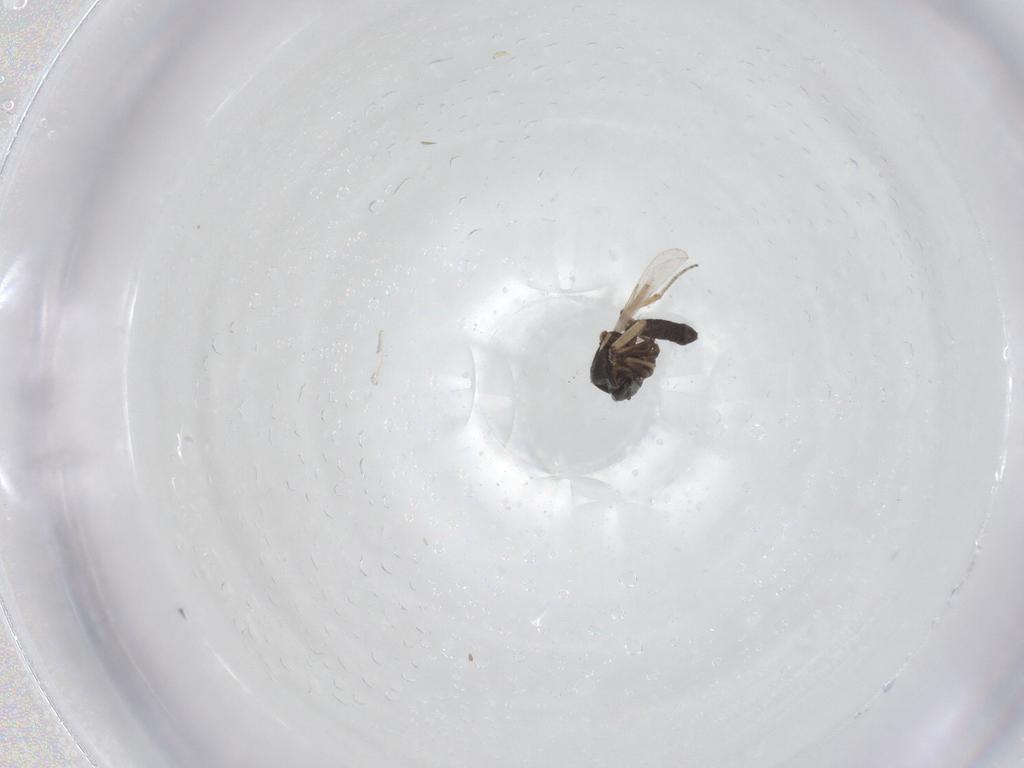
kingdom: Animalia
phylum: Arthropoda
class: Insecta
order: Diptera
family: Ceratopogonidae
